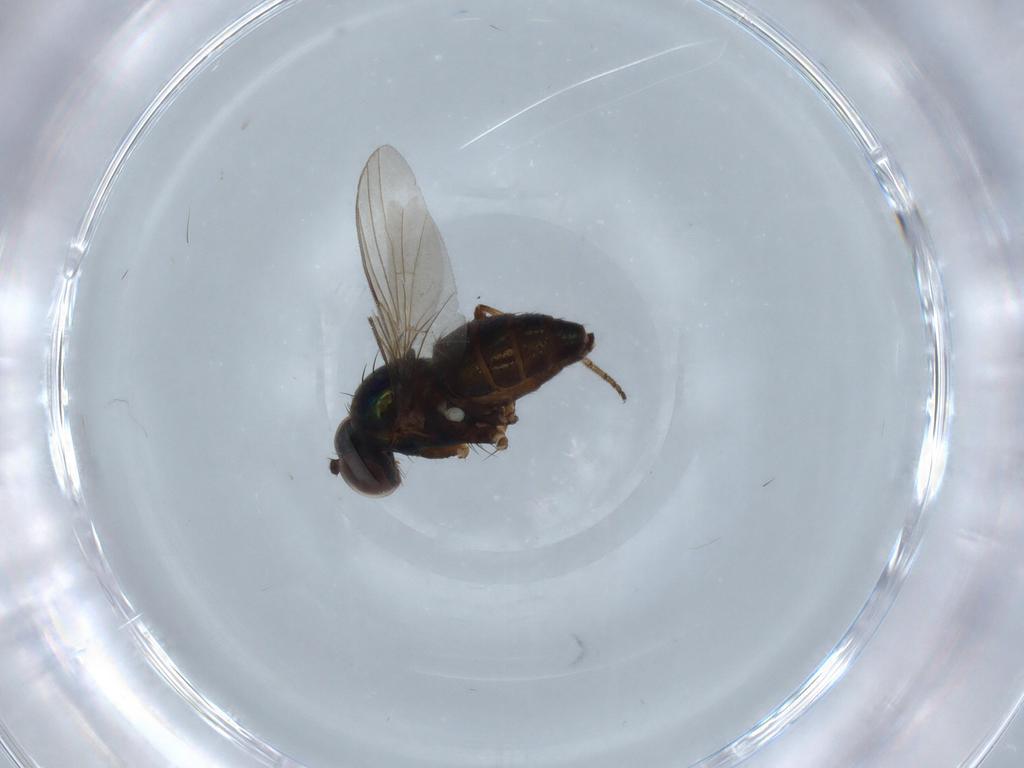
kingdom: Animalia
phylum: Arthropoda
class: Insecta
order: Diptera
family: Dolichopodidae
